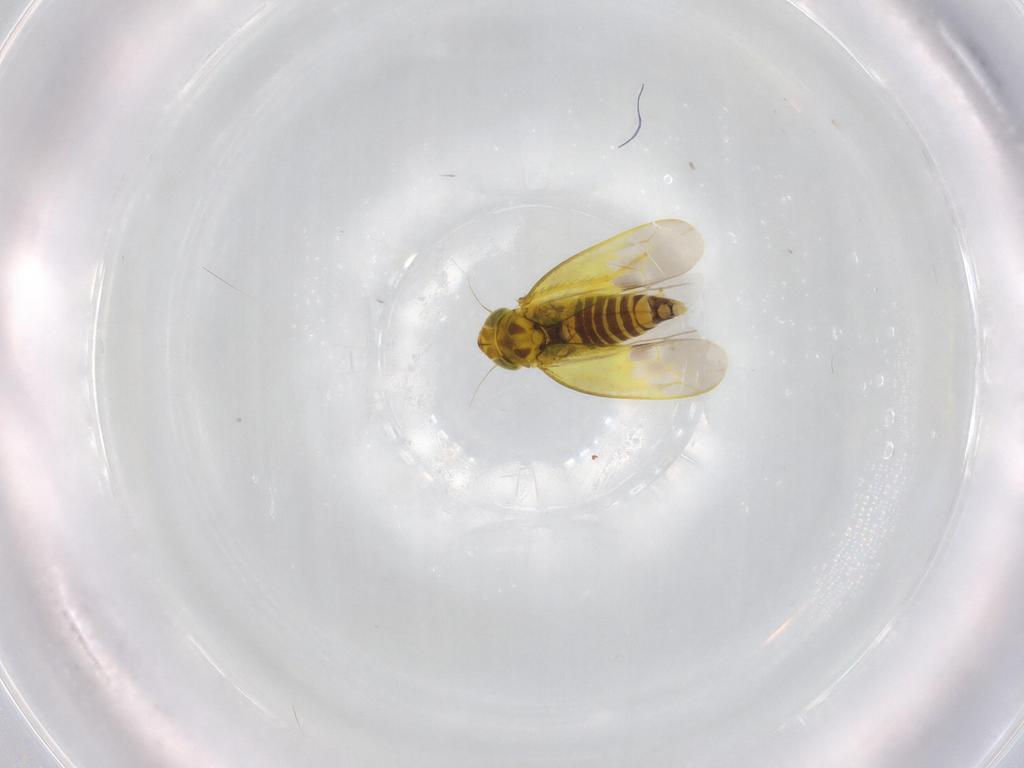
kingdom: Animalia
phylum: Arthropoda
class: Insecta
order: Hemiptera
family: Cicadellidae
